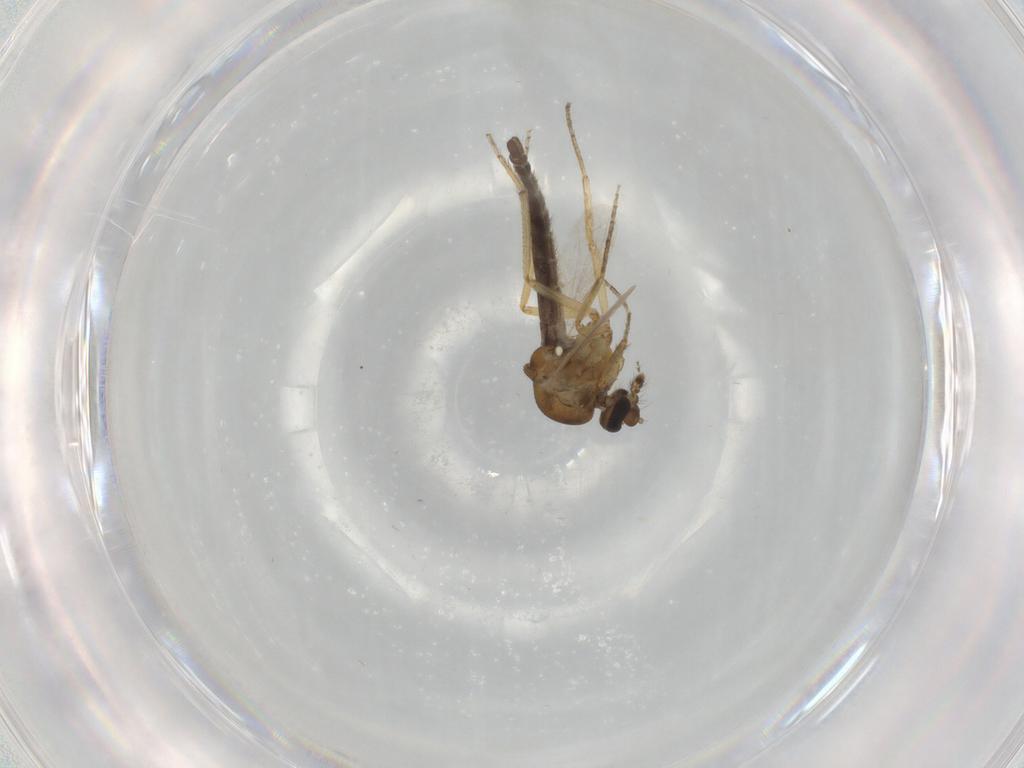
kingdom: Animalia
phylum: Arthropoda
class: Insecta
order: Diptera
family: Ceratopogonidae
